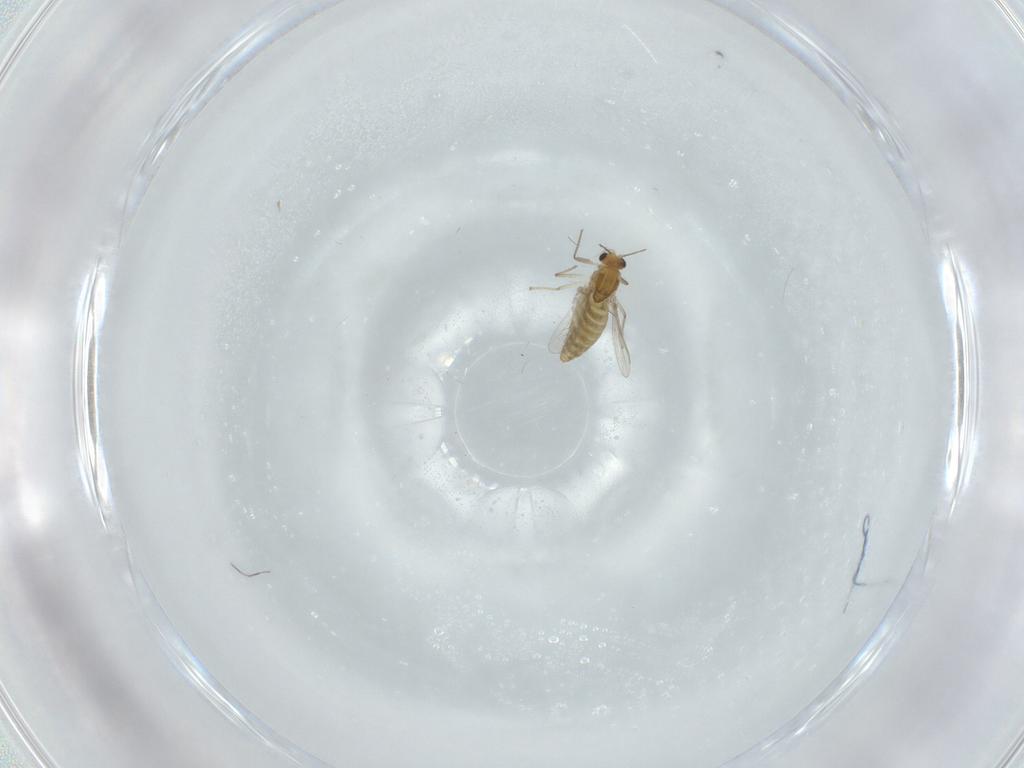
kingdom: Animalia
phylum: Arthropoda
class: Insecta
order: Diptera
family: Chironomidae
